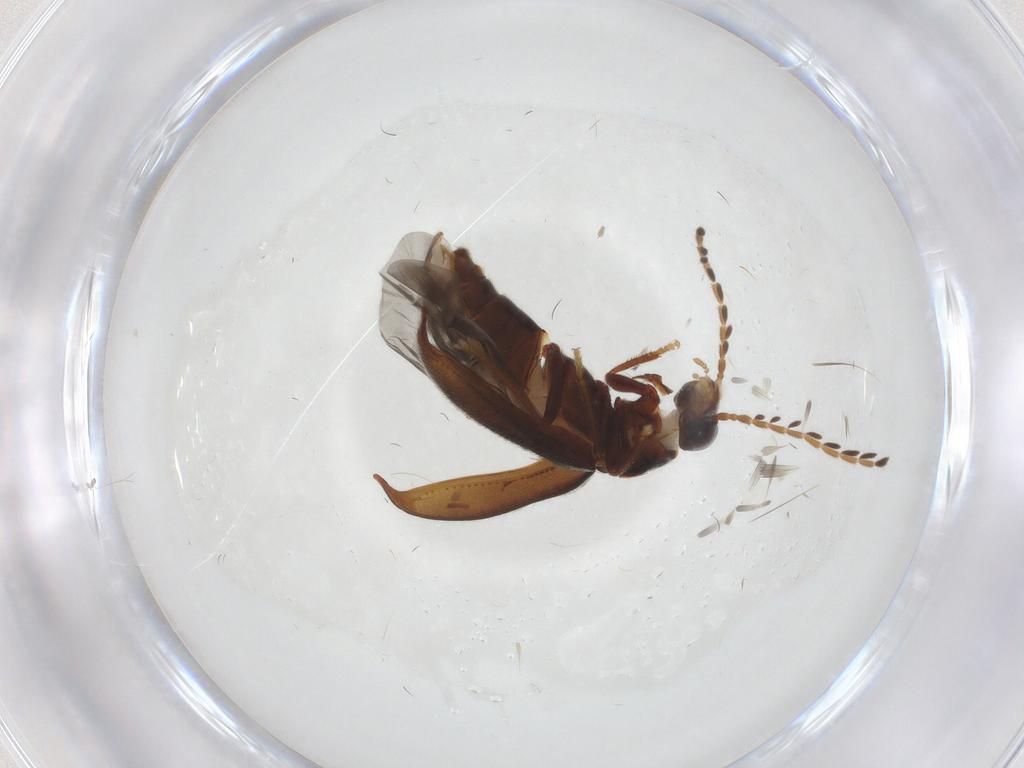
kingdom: Animalia
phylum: Arthropoda
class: Insecta
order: Coleoptera
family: Ptilodactylidae
